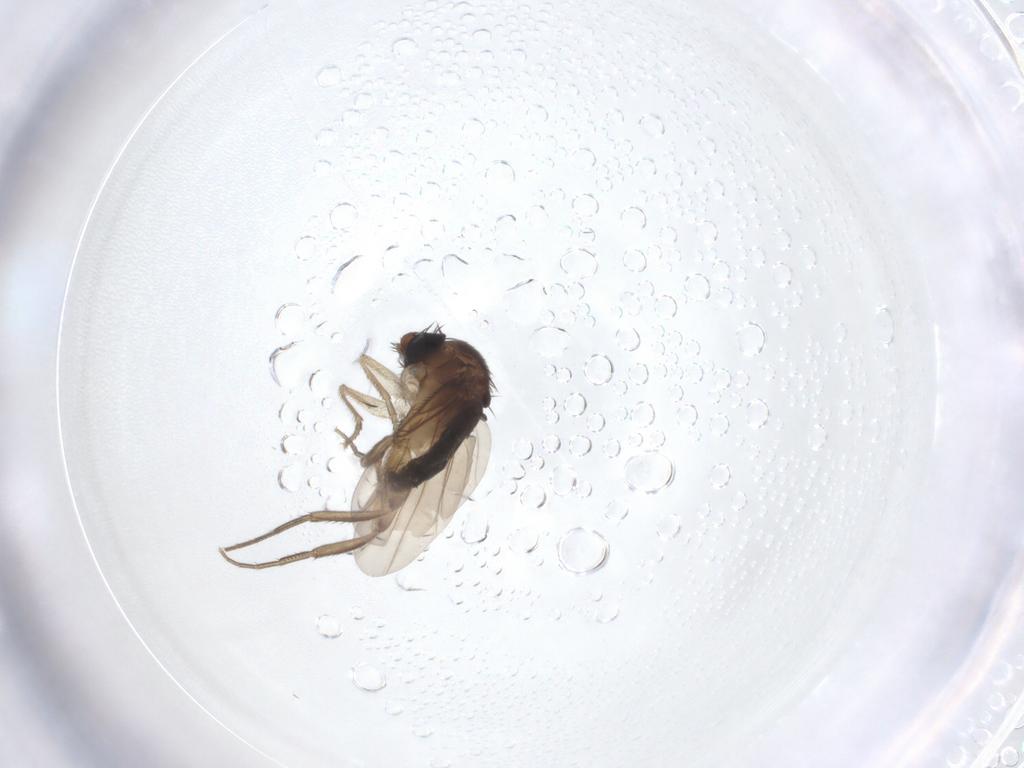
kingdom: Animalia
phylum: Arthropoda
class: Insecta
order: Diptera
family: Phoridae
